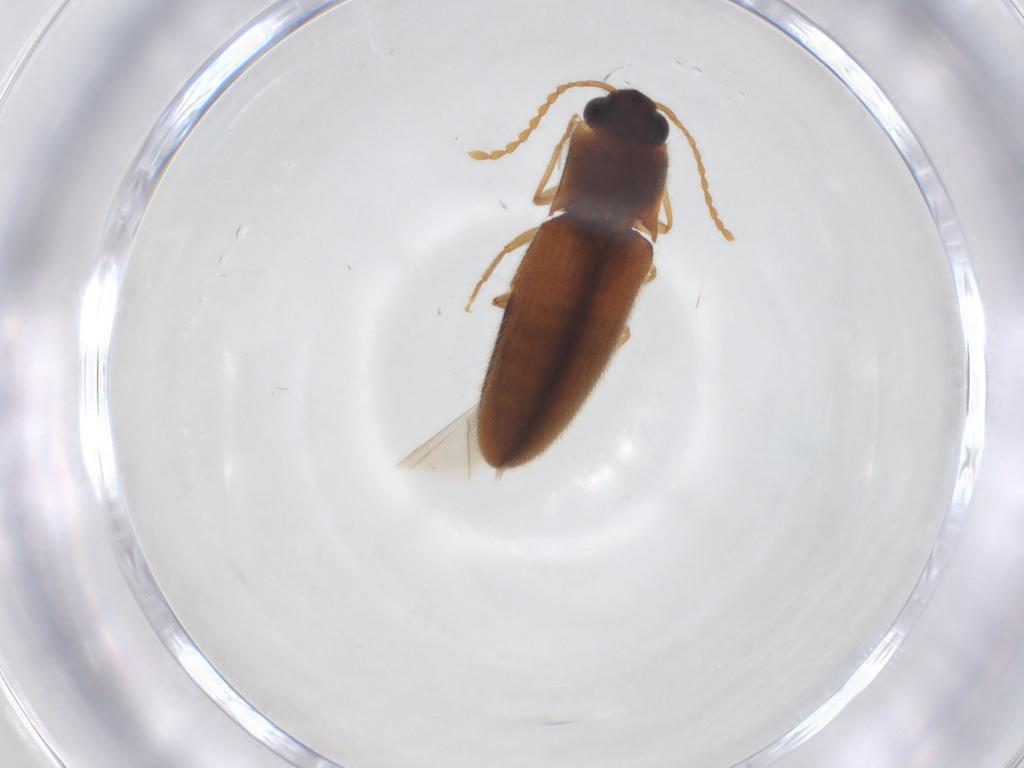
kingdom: Animalia
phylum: Arthropoda
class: Insecta
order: Coleoptera
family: Elateridae
